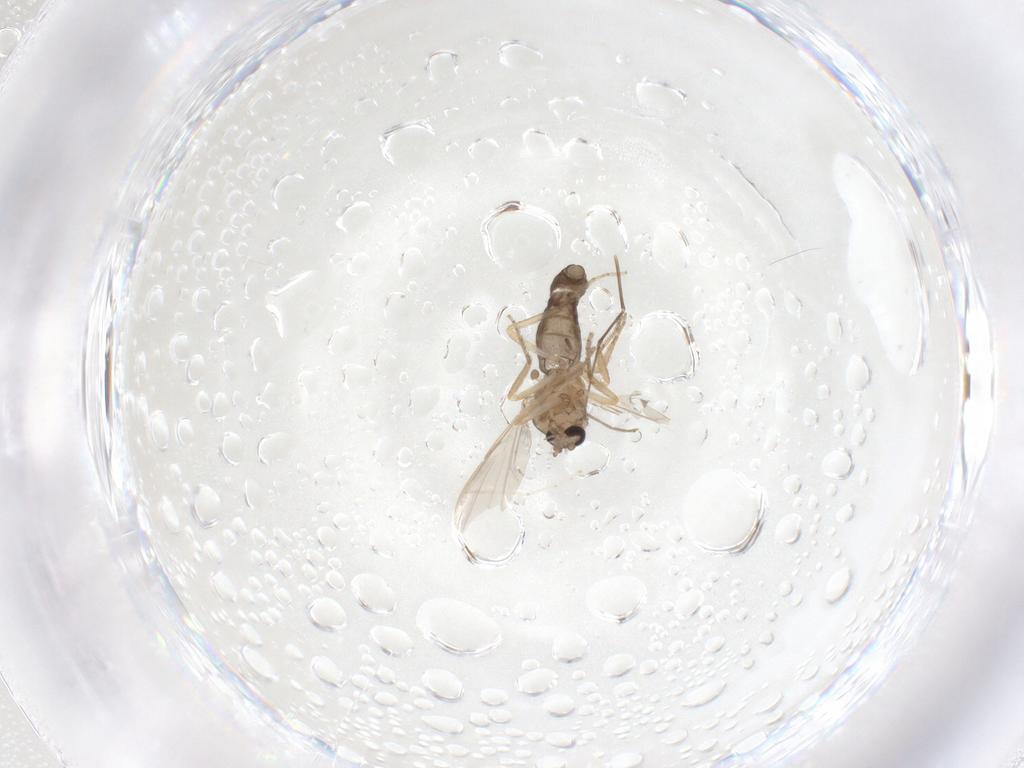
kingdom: Animalia
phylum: Arthropoda
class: Insecta
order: Diptera
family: Ceratopogonidae
